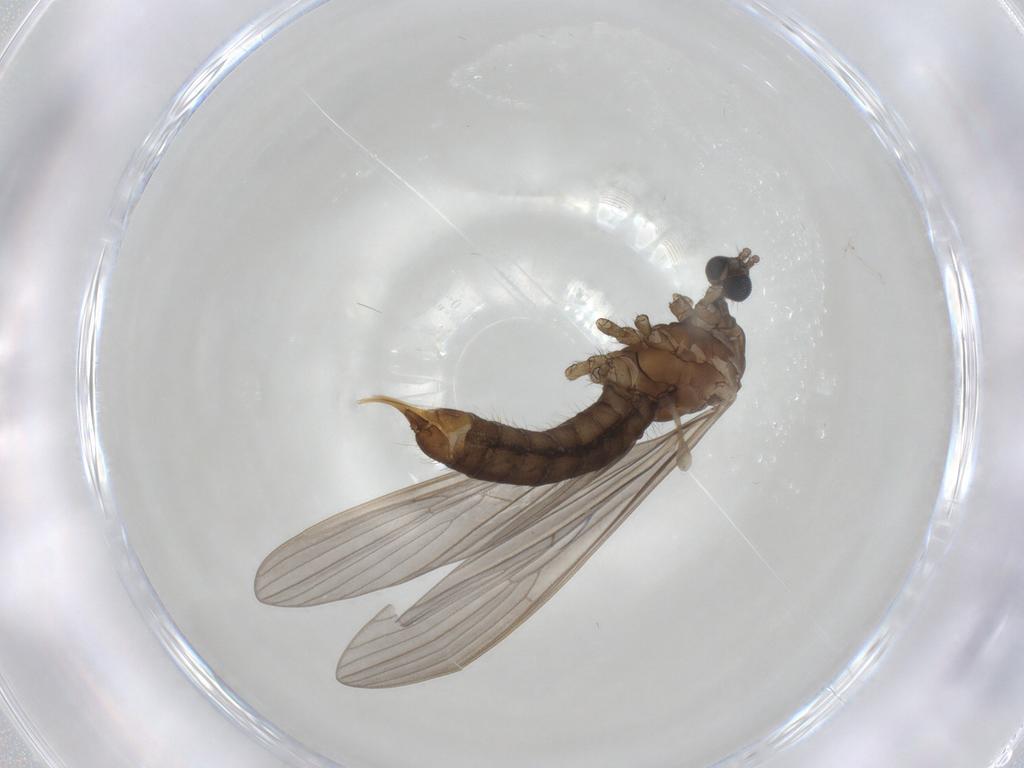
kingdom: Animalia
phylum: Arthropoda
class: Insecta
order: Diptera
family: Limoniidae
